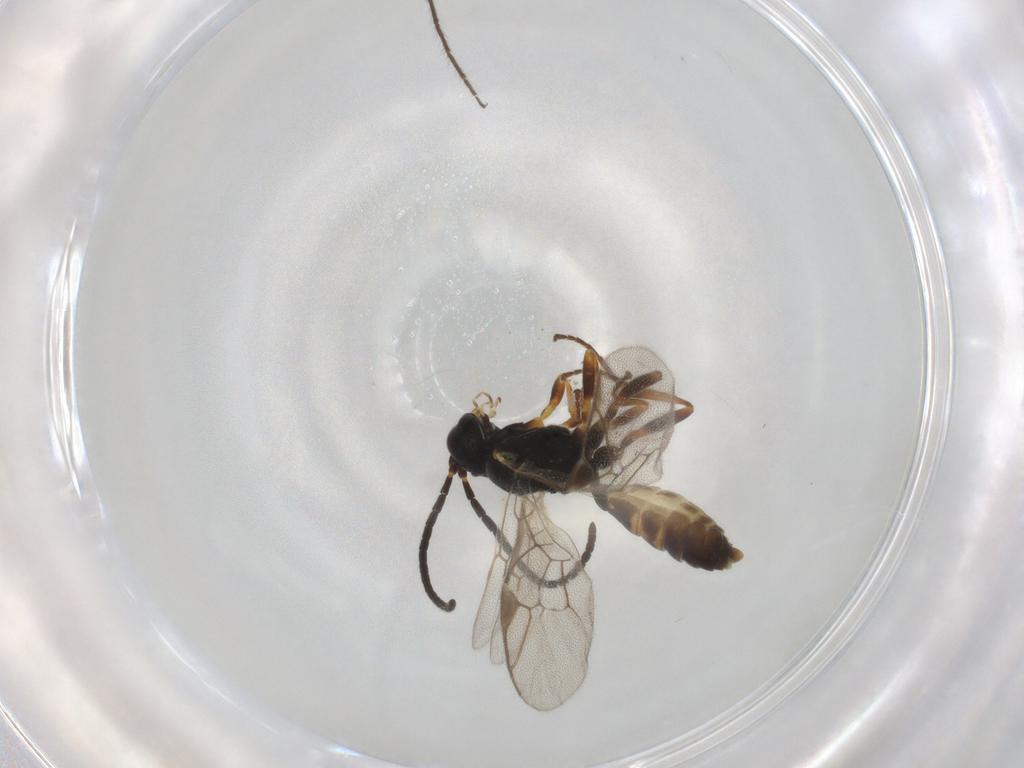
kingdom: Animalia
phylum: Arthropoda
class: Insecta
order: Hymenoptera
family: Ichneumonidae
